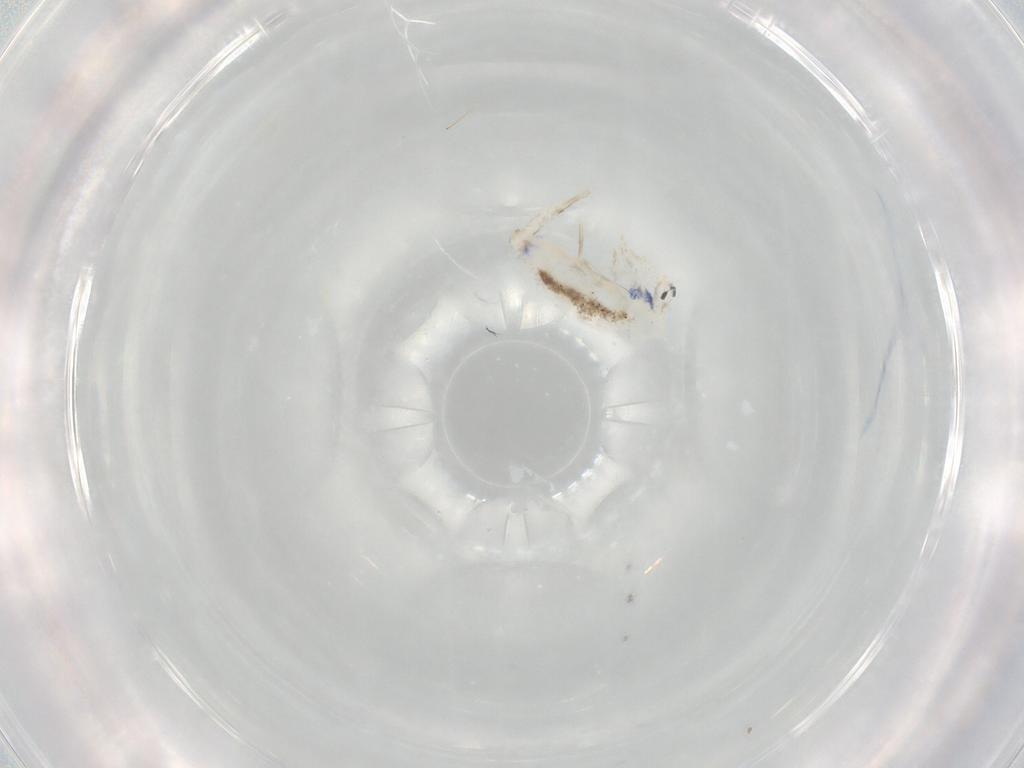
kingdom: Animalia
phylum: Arthropoda
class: Collembola
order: Entomobryomorpha
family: Entomobryidae
